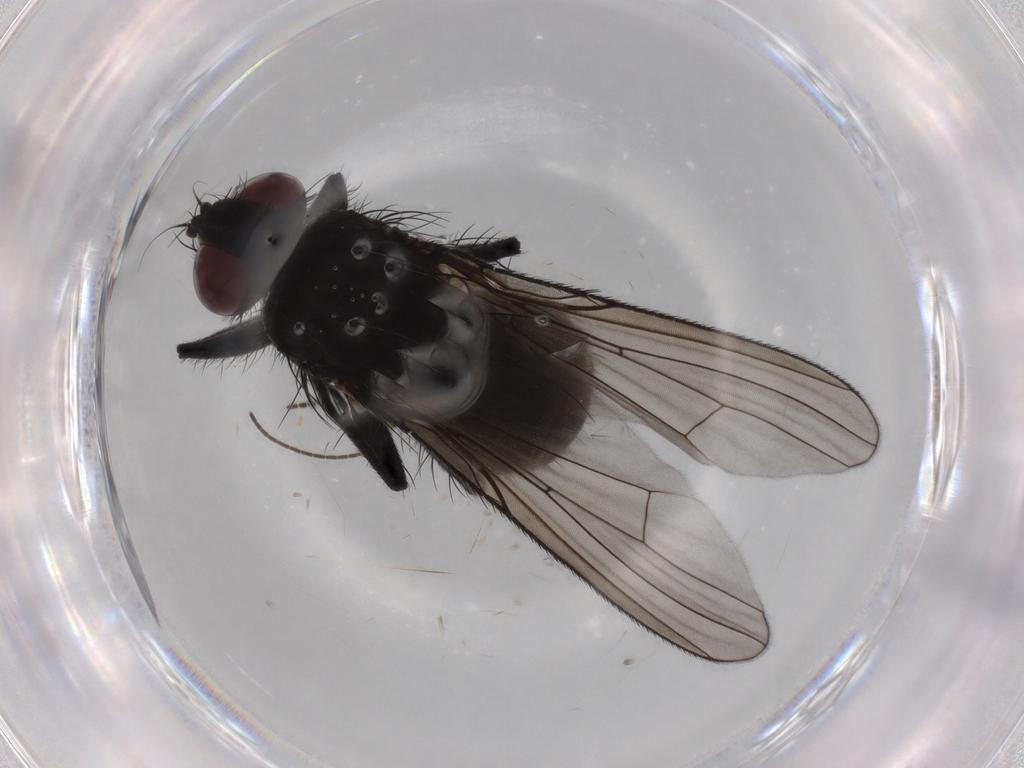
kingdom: Animalia
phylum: Arthropoda
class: Insecta
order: Diptera
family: Muscidae
